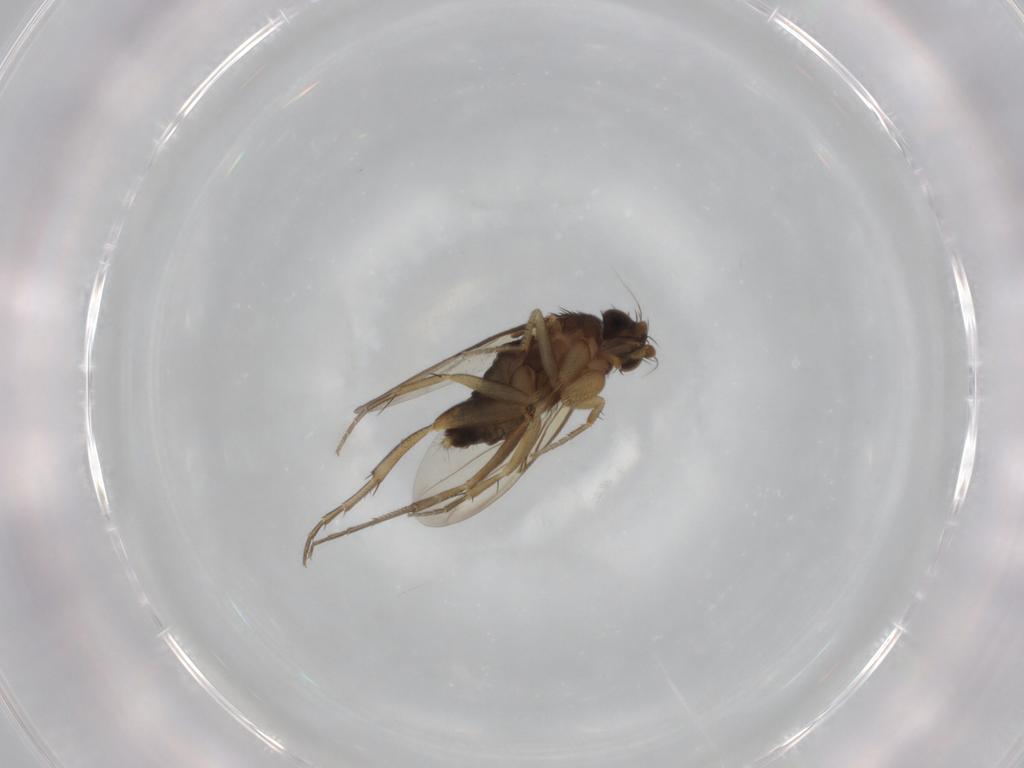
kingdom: Animalia
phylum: Arthropoda
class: Insecta
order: Diptera
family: Phoridae
